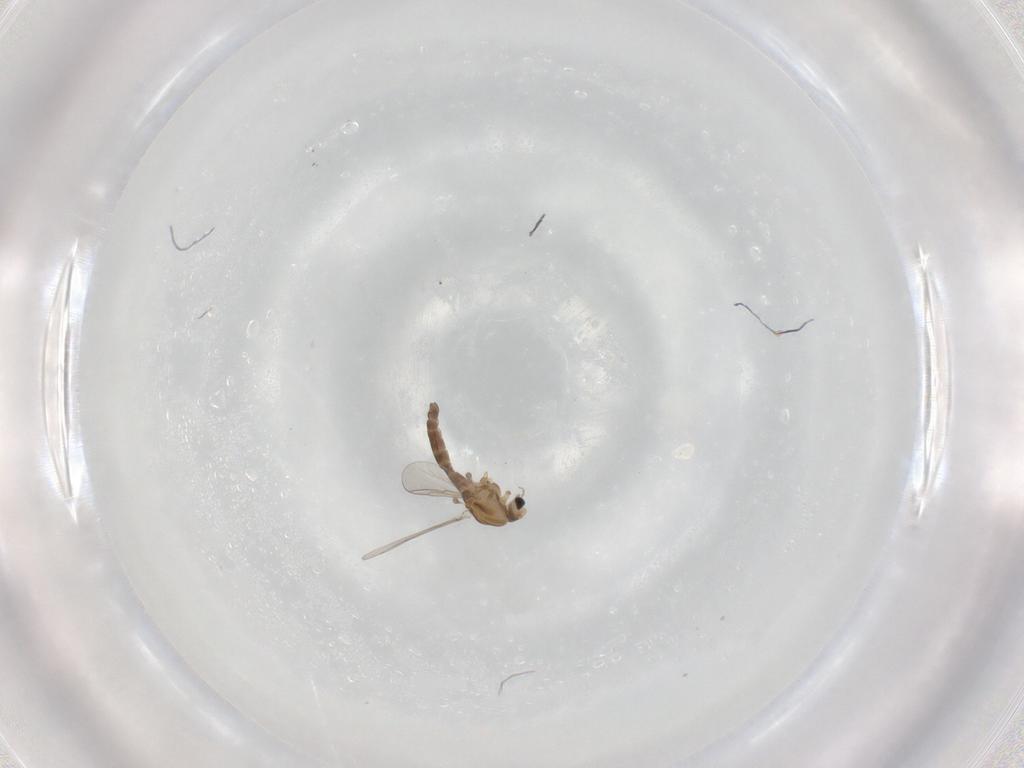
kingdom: Animalia
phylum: Arthropoda
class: Insecta
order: Diptera
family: Chironomidae
